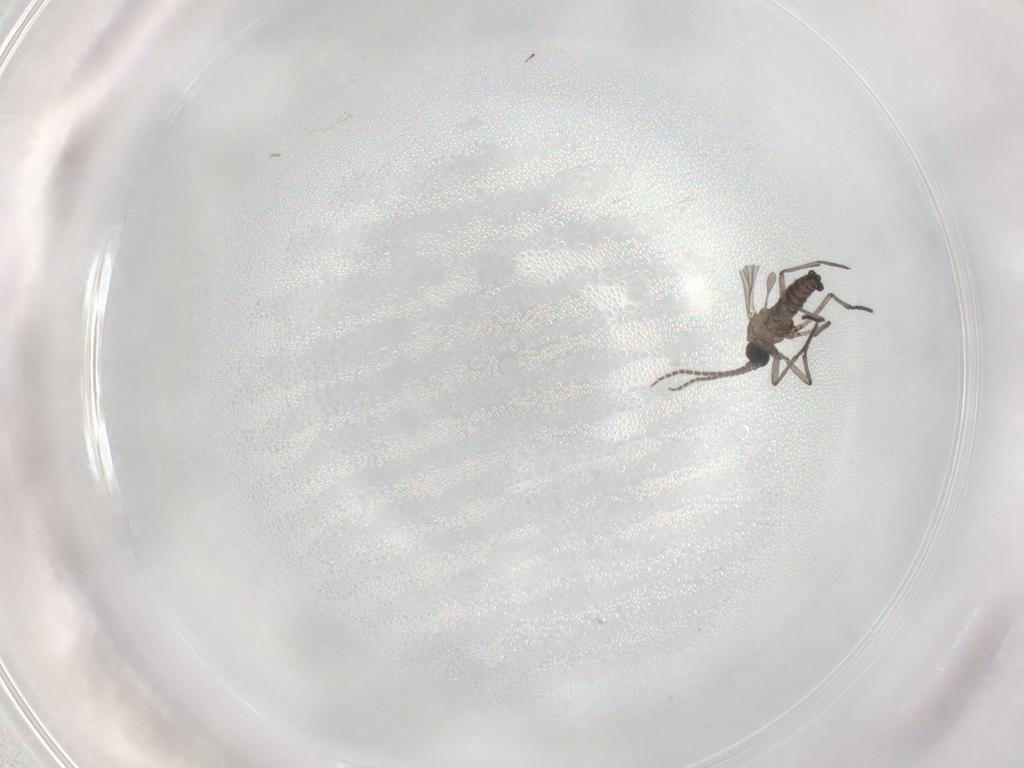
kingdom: Animalia
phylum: Arthropoda
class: Insecta
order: Diptera
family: Sciaridae
